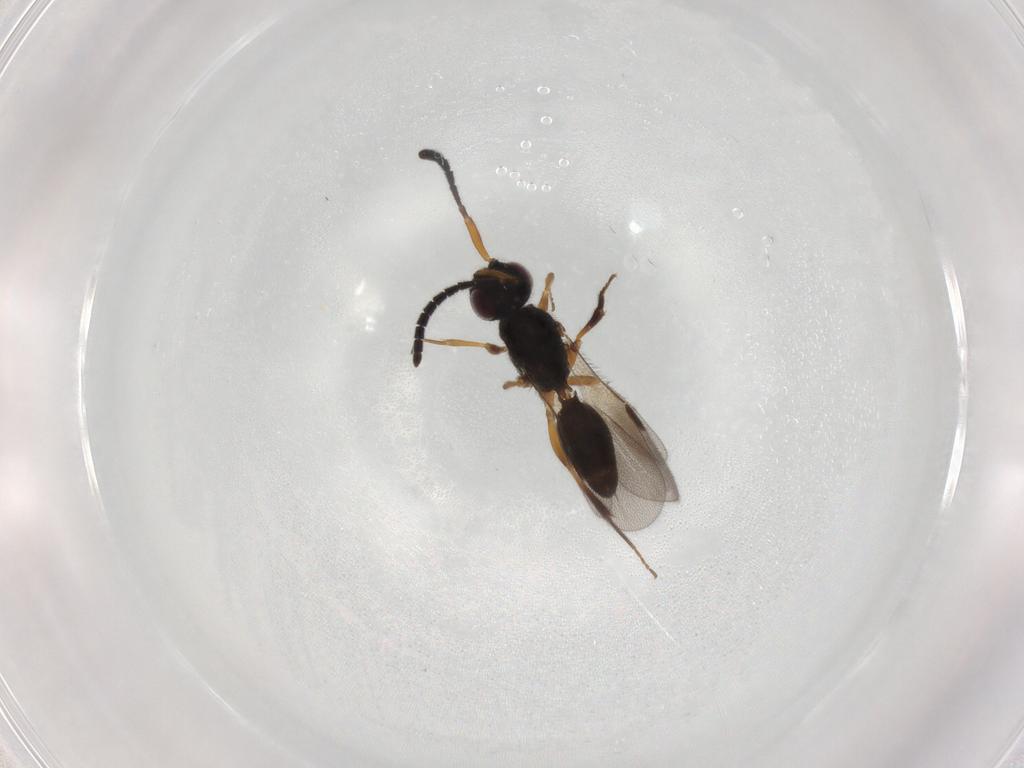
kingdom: Animalia
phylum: Arthropoda
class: Insecta
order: Hymenoptera
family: Megaspilidae
